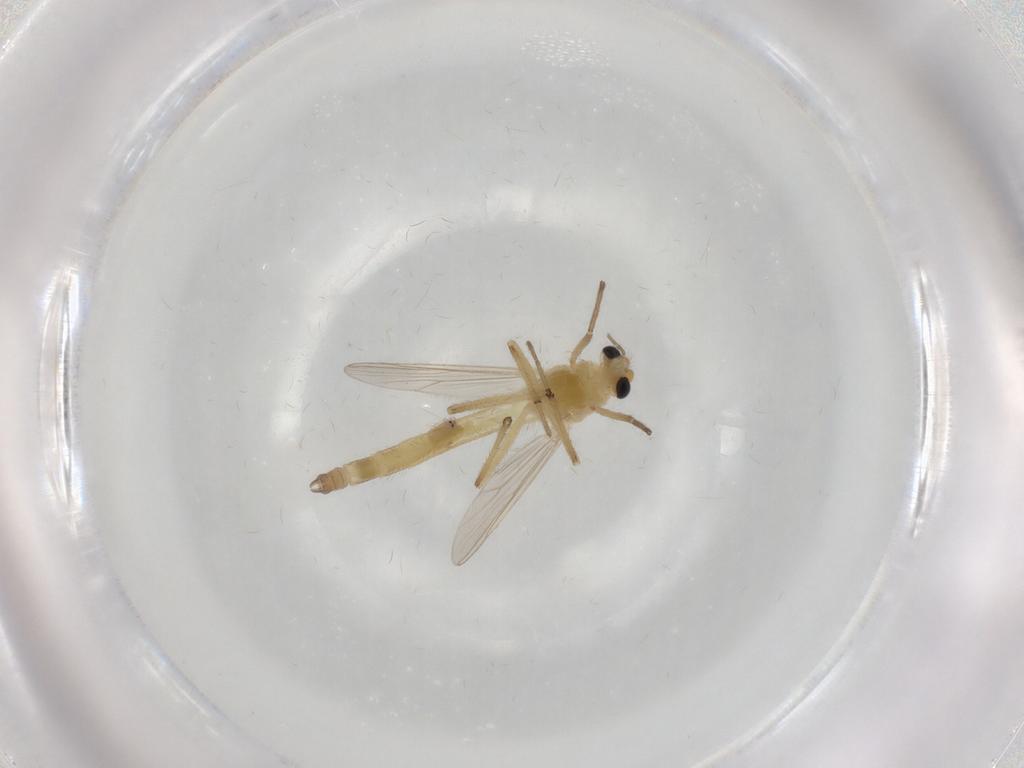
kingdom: Animalia
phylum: Arthropoda
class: Insecta
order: Diptera
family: Chironomidae
